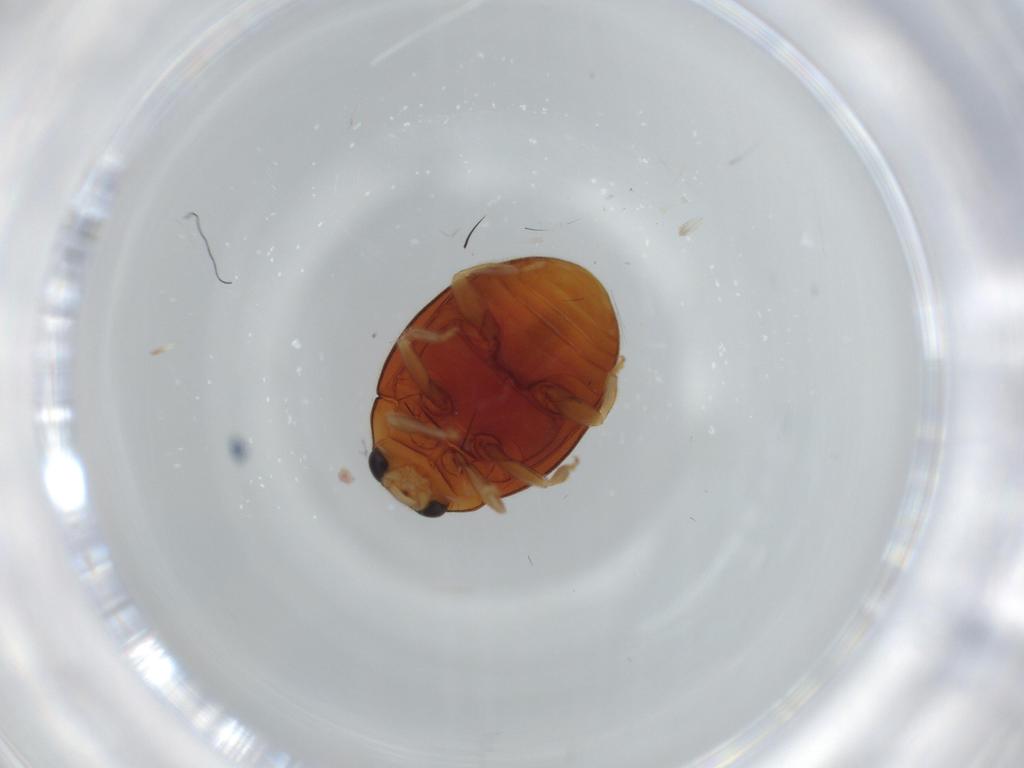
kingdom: Animalia
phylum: Arthropoda
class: Insecta
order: Coleoptera
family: Coccinellidae
